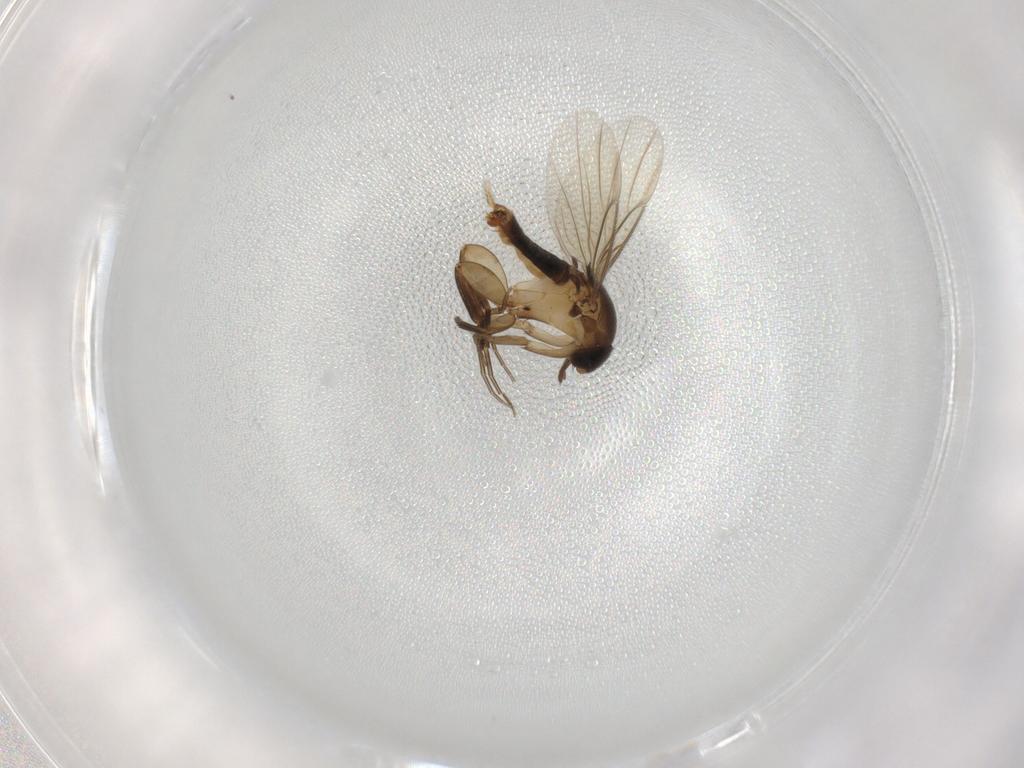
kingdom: Animalia
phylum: Arthropoda
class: Insecta
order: Diptera
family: Phoridae
